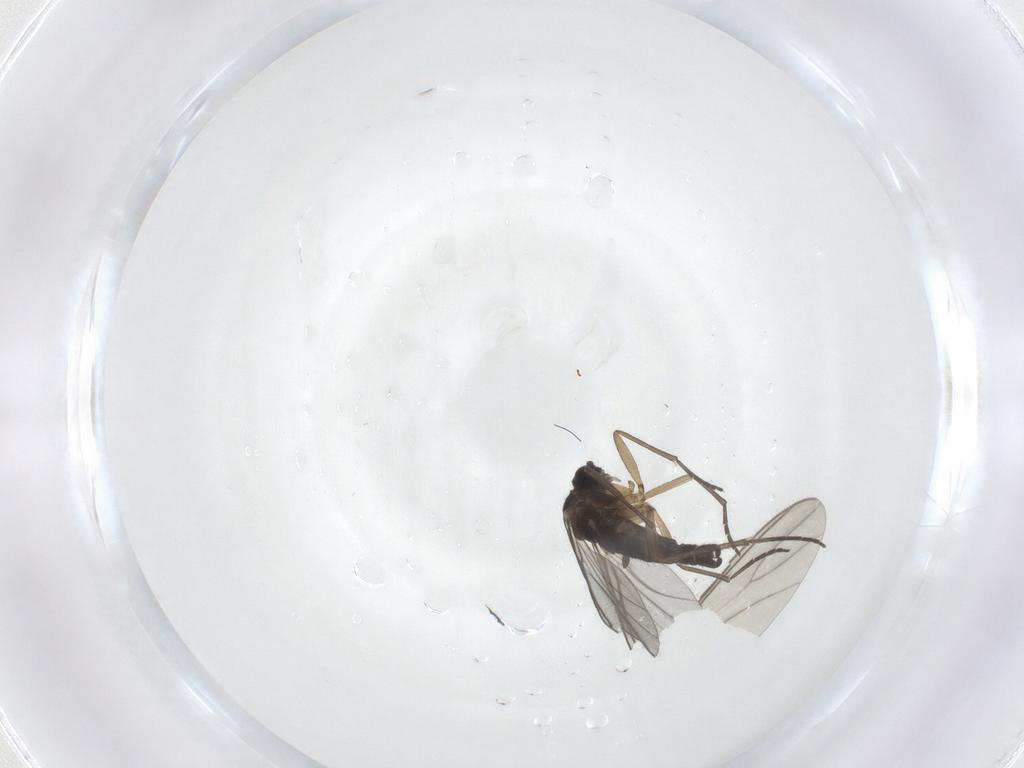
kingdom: Animalia
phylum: Arthropoda
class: Insecta
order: Diptera
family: Sciaridae
